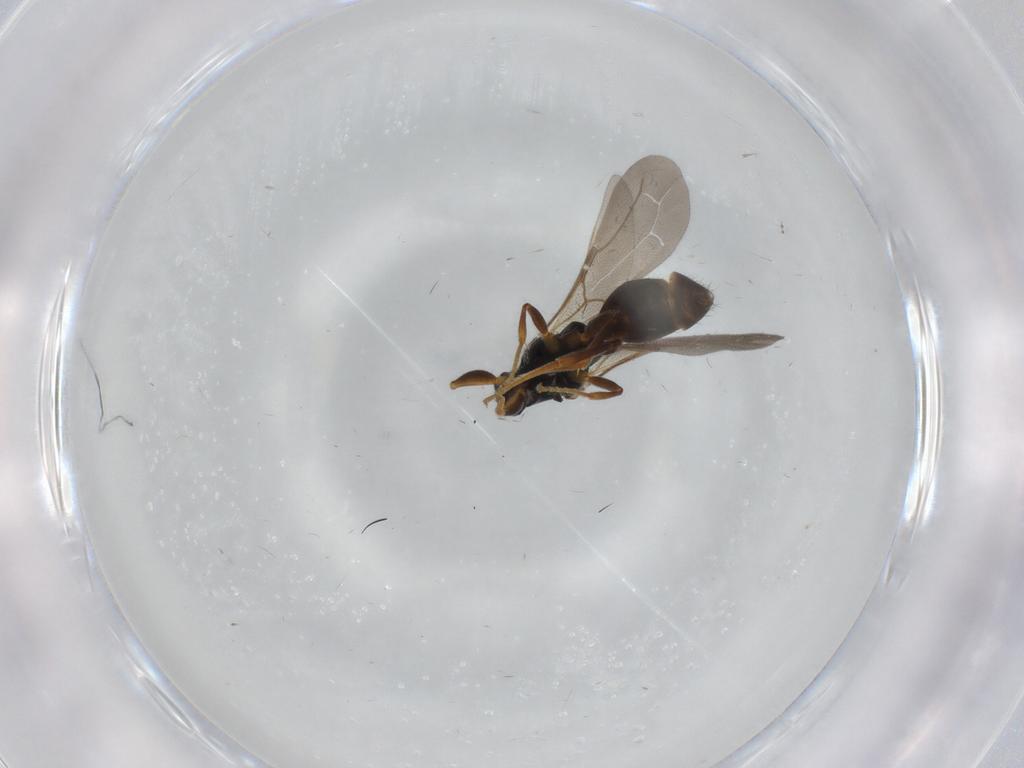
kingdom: Animalia
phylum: Arthropoda
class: Insecta
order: Hymenoptera
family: Bethylidae
